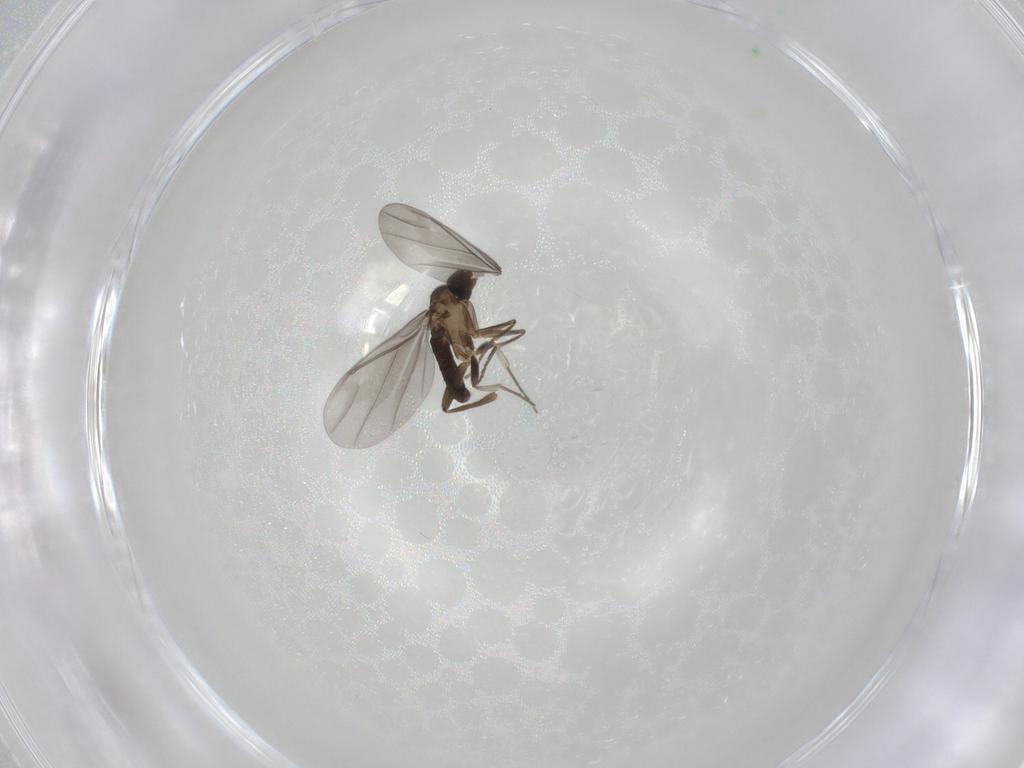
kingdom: Animalia
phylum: Arthropoda
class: Insecta
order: Diptera
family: Phoridae
